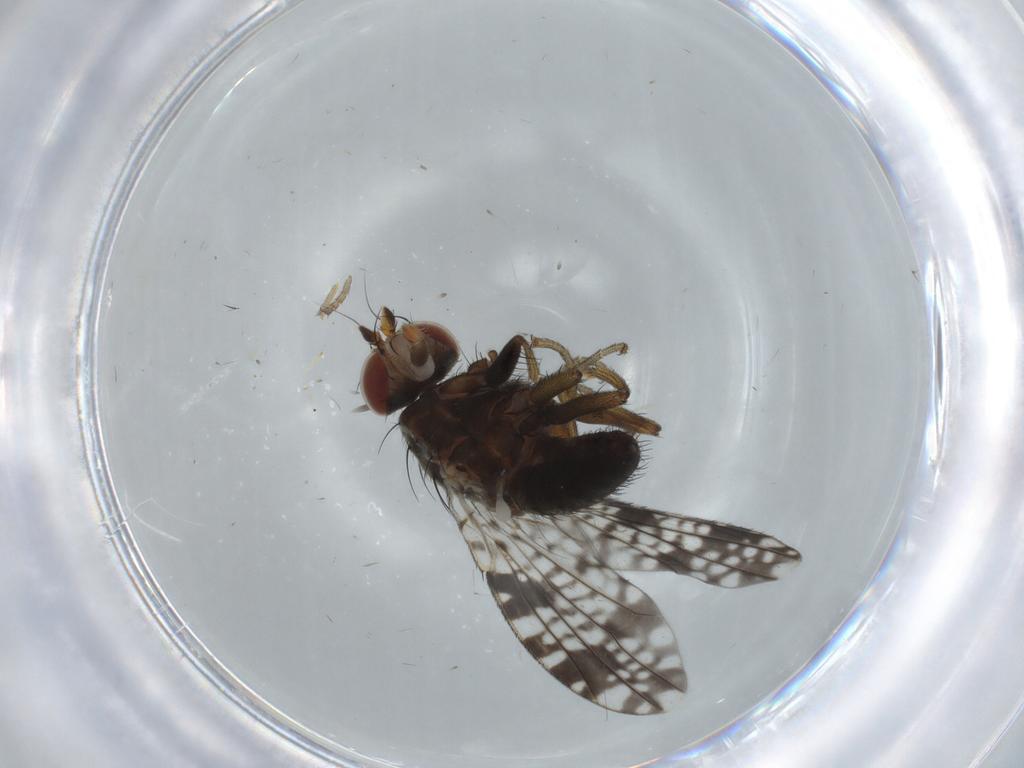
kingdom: Animalia
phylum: Arthropoda
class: Insecta
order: Diptera
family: Tephritidae
